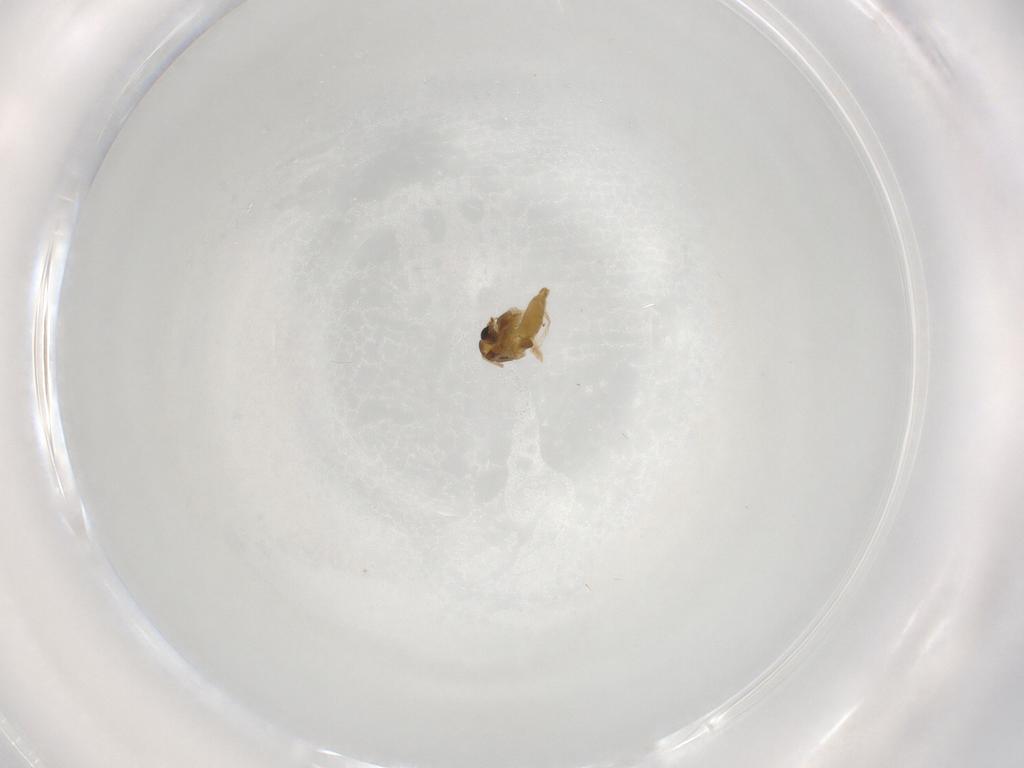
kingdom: Animalia
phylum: Arthropoda
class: Insecta
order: Diptera
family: Chironomidae
